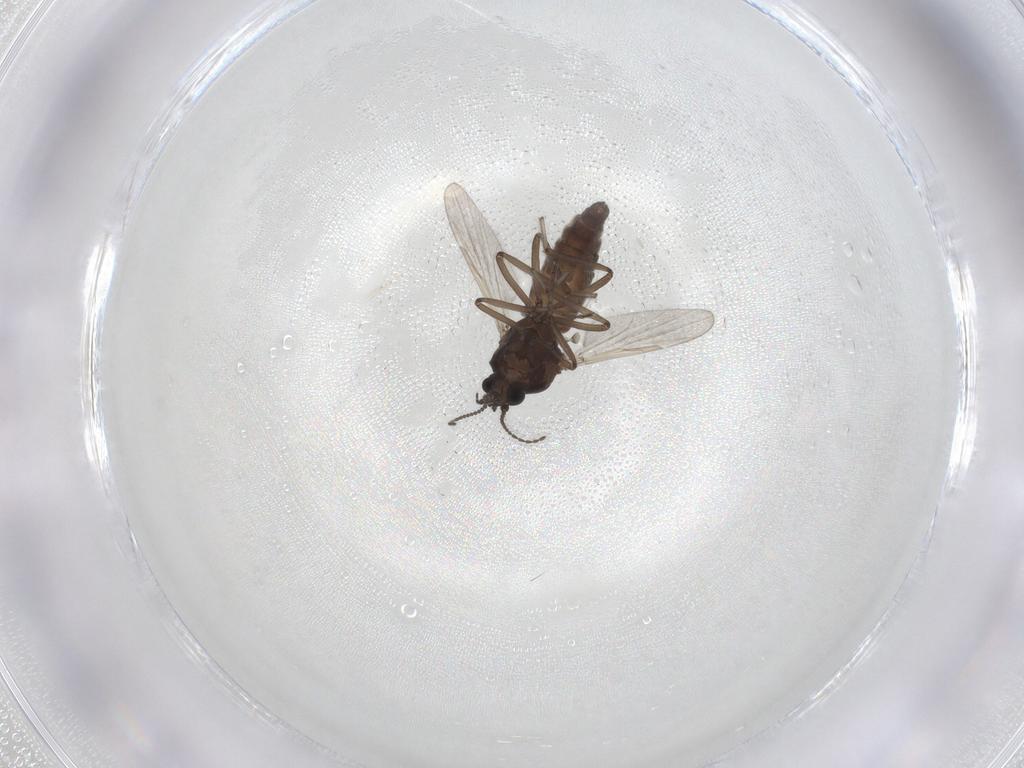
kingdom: Animalia
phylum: Arthropoda
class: Insecta
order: Diptera
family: Ceratopogonidae
